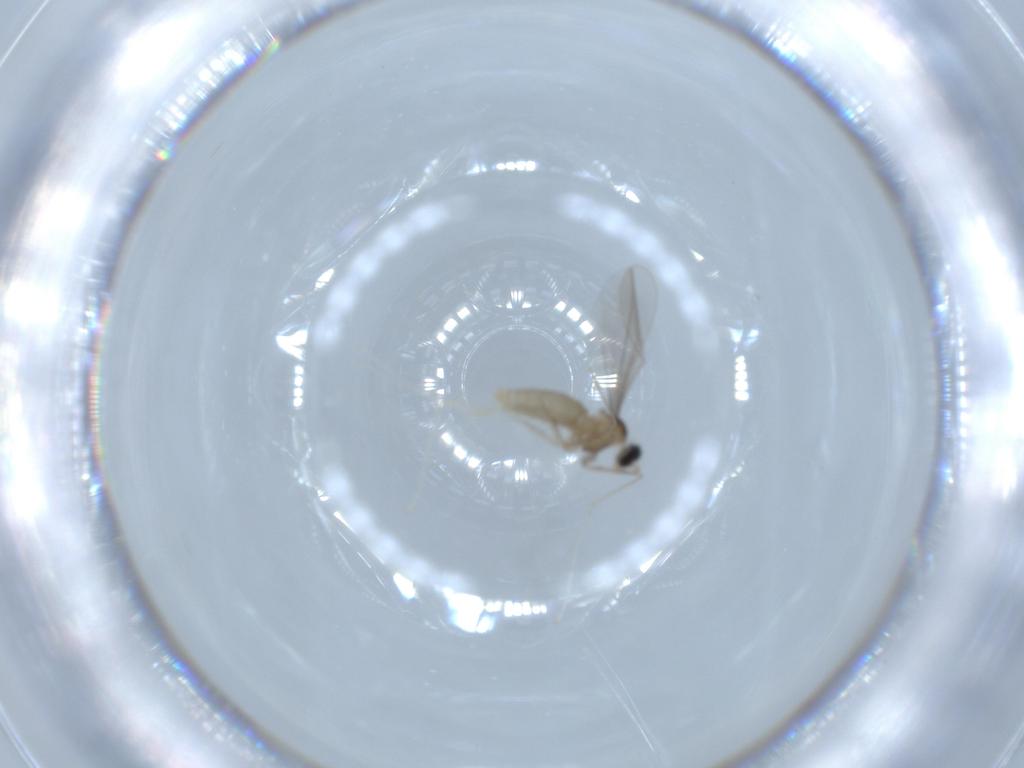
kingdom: Animalia
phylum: Arthropoda
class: Insecta
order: Diptera
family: Cecidomyiidae
